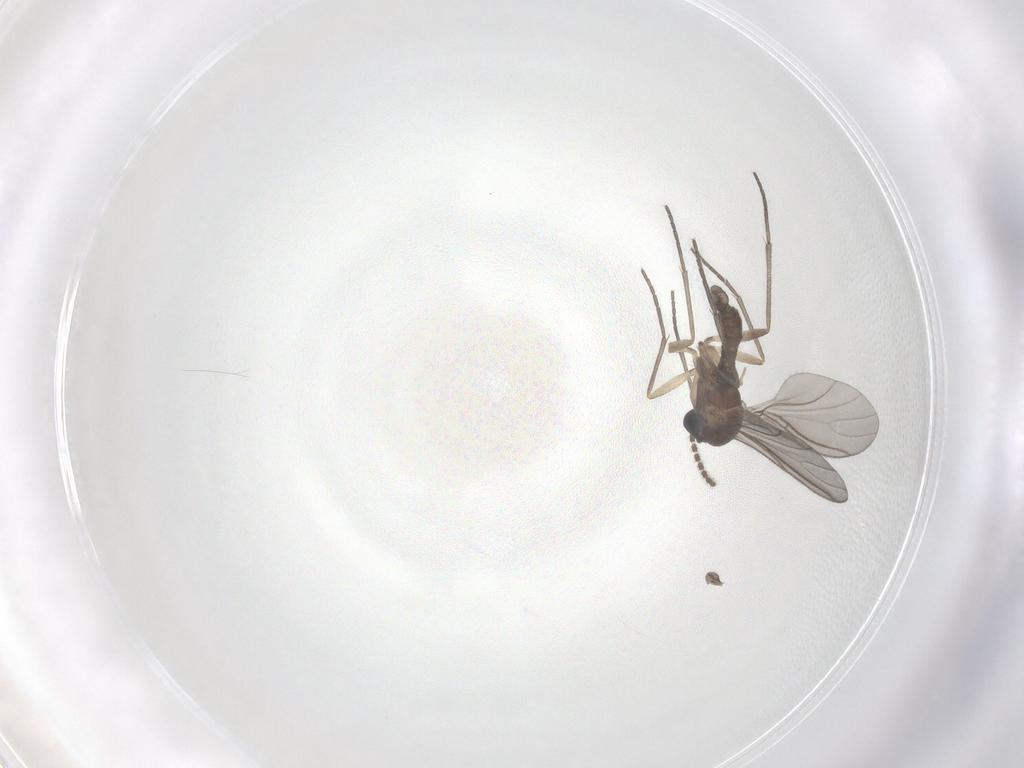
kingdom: Animalia
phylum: Arthropoda
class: Insecta
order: Diptera
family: Sciaridae
